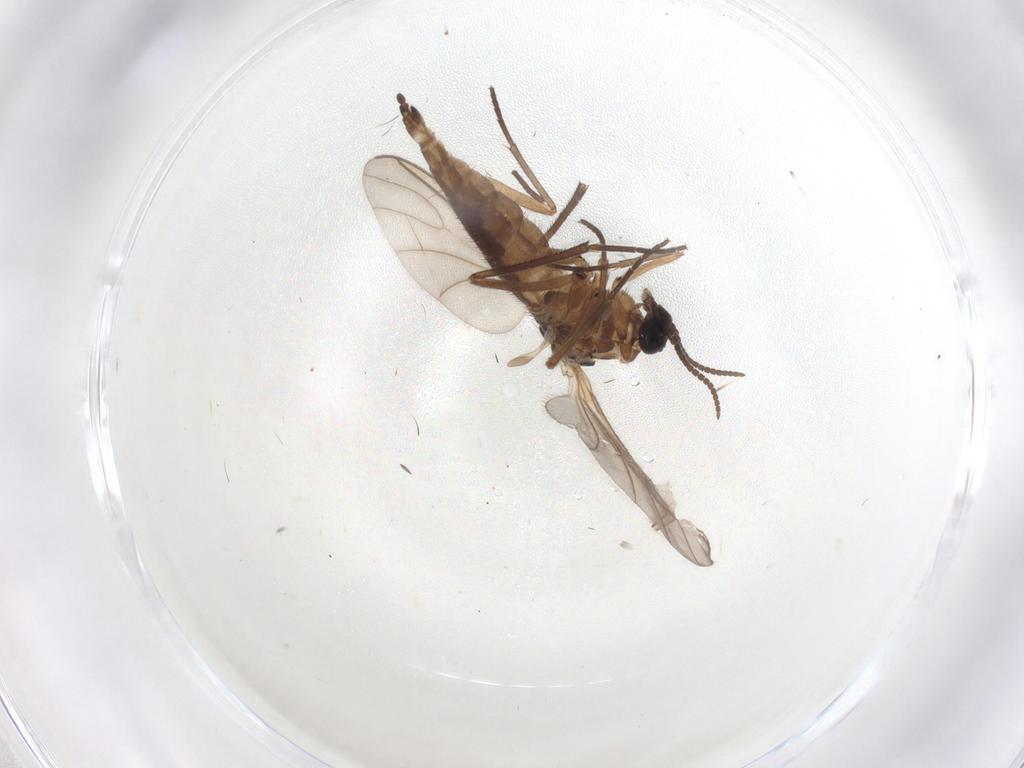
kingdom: Animalia
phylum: Arthropoda
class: Insecta
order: Diptera
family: Sciaridae
